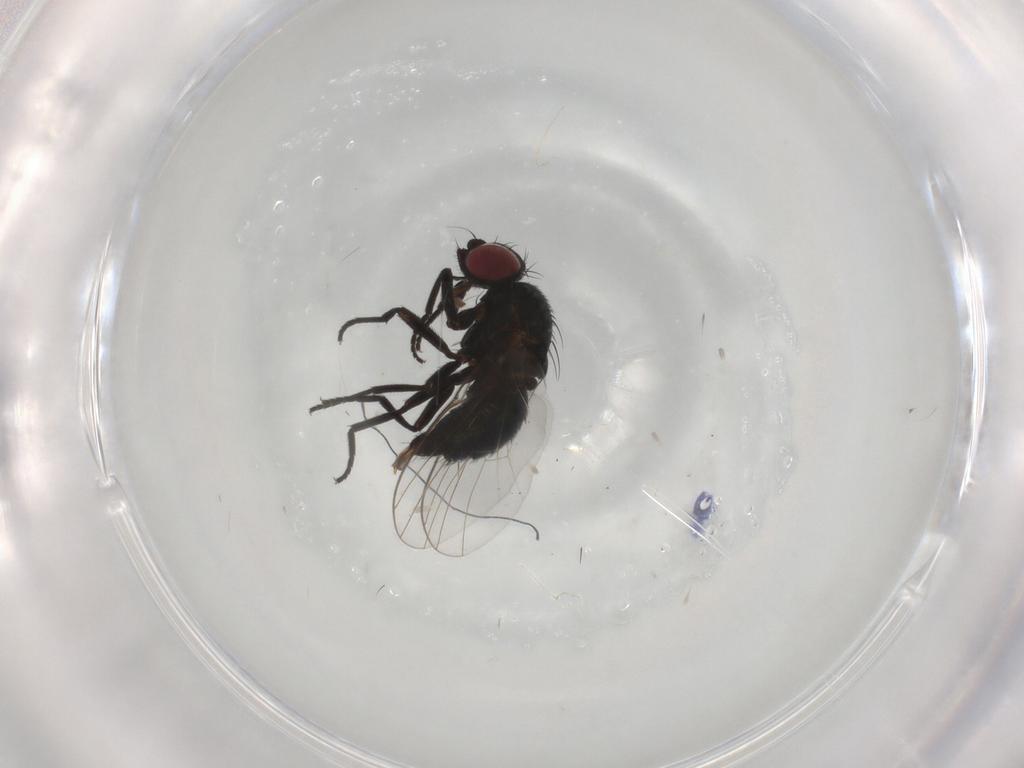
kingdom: Animalia
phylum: Arthropoda
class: Insecta
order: Diptera
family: Agromyzidae
